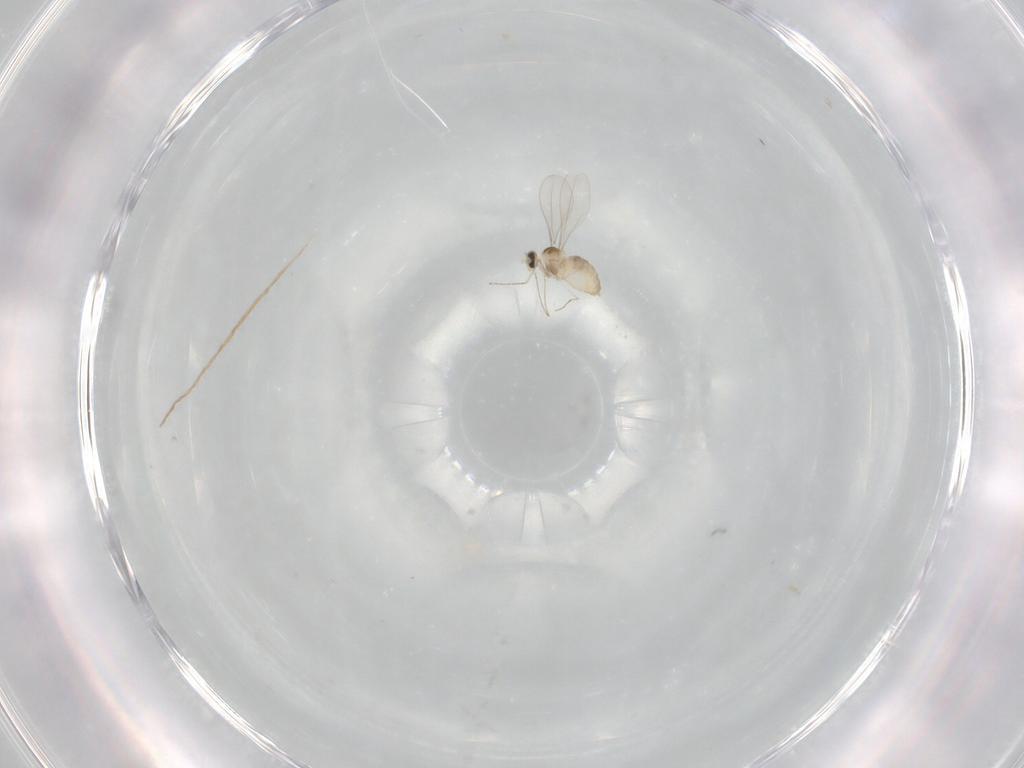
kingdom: Animalia
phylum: Arthropoda
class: Insecta
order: Diptera
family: Cecidomyiidae
